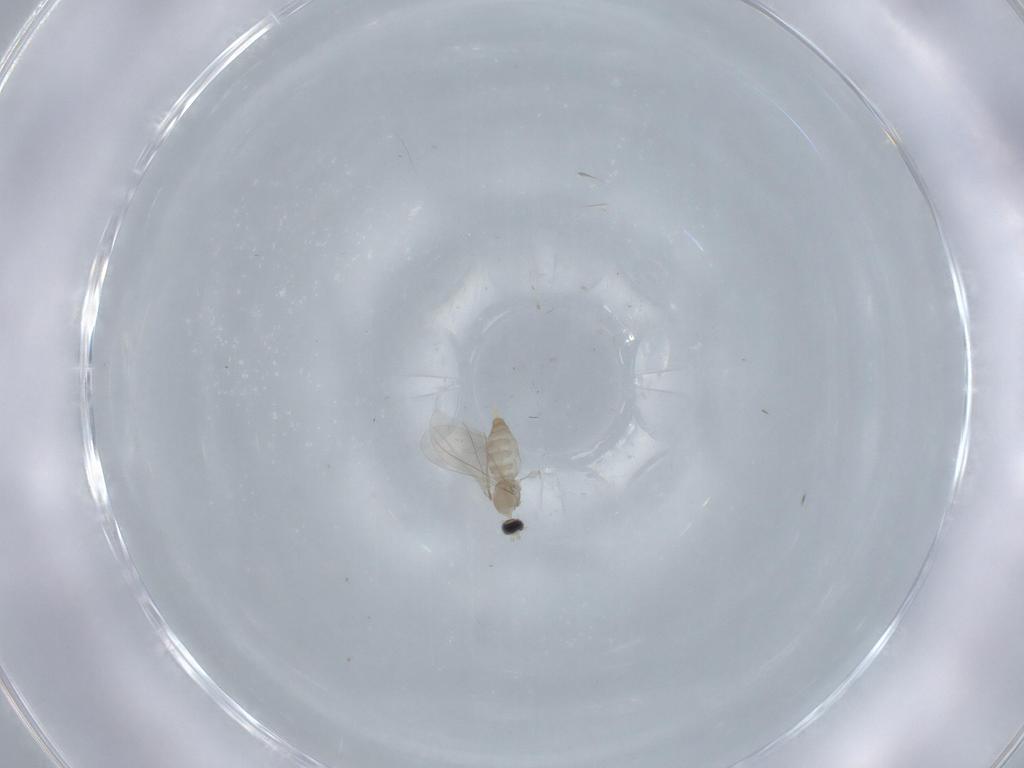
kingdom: Animalia
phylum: Arthropoda
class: Insecta
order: Diptera
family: Cecidomyiidae
